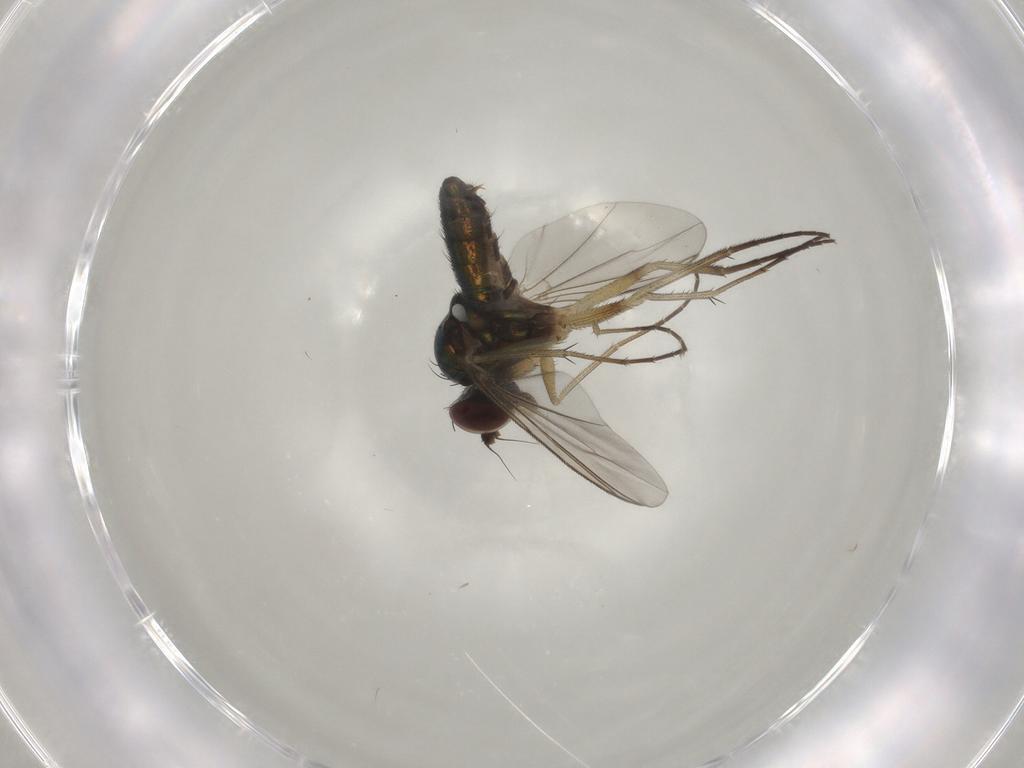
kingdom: Animalia
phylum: Arthropoda
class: Insecta
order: Diptera
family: Dolichopodidae
